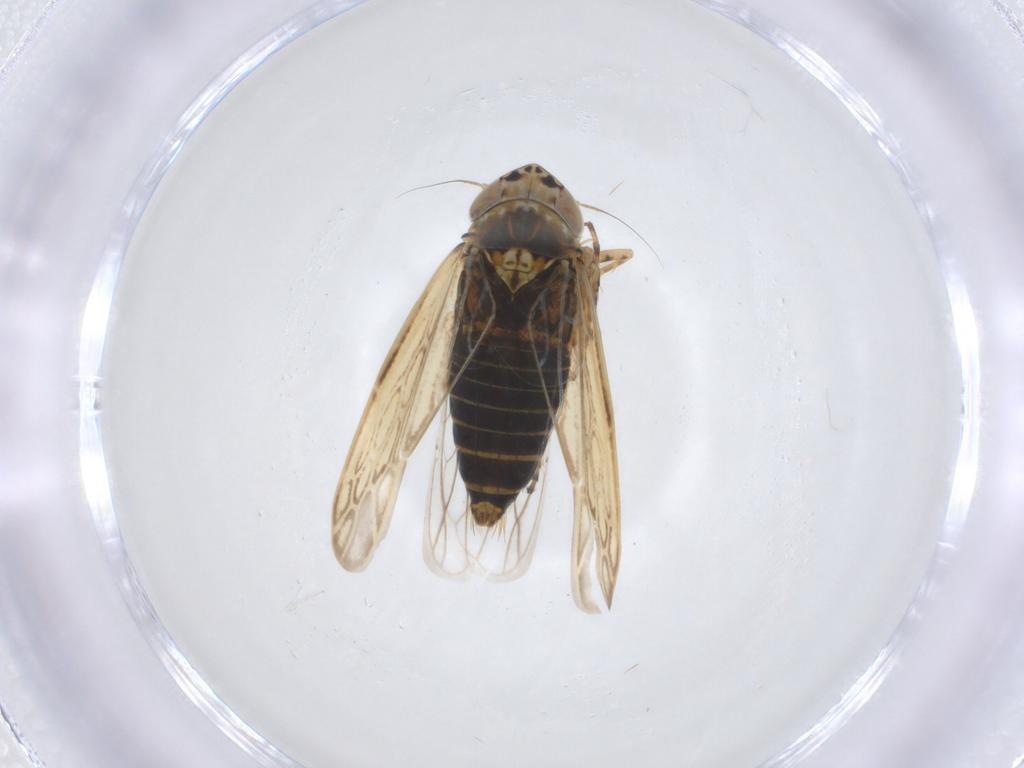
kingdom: Animalia
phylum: Arthropoda
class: Insecta
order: Hemiptera
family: Cicadellidae
